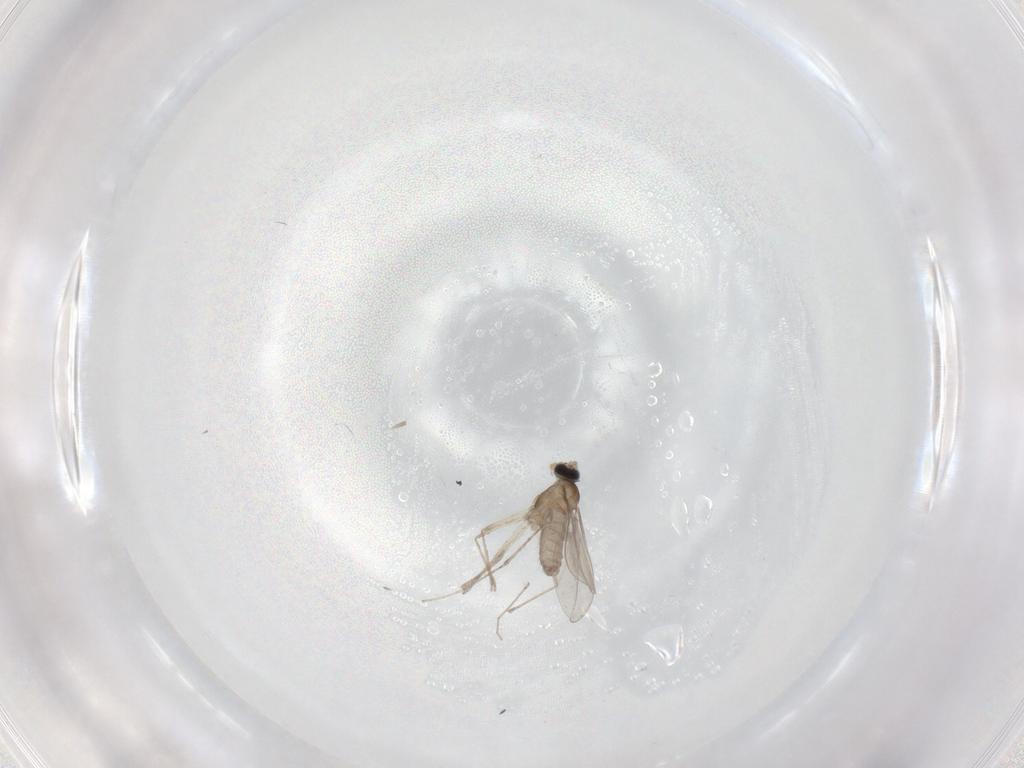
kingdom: Animalia
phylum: Arthropoda
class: Insecta
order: Diptera
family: Cecidomyiidae
